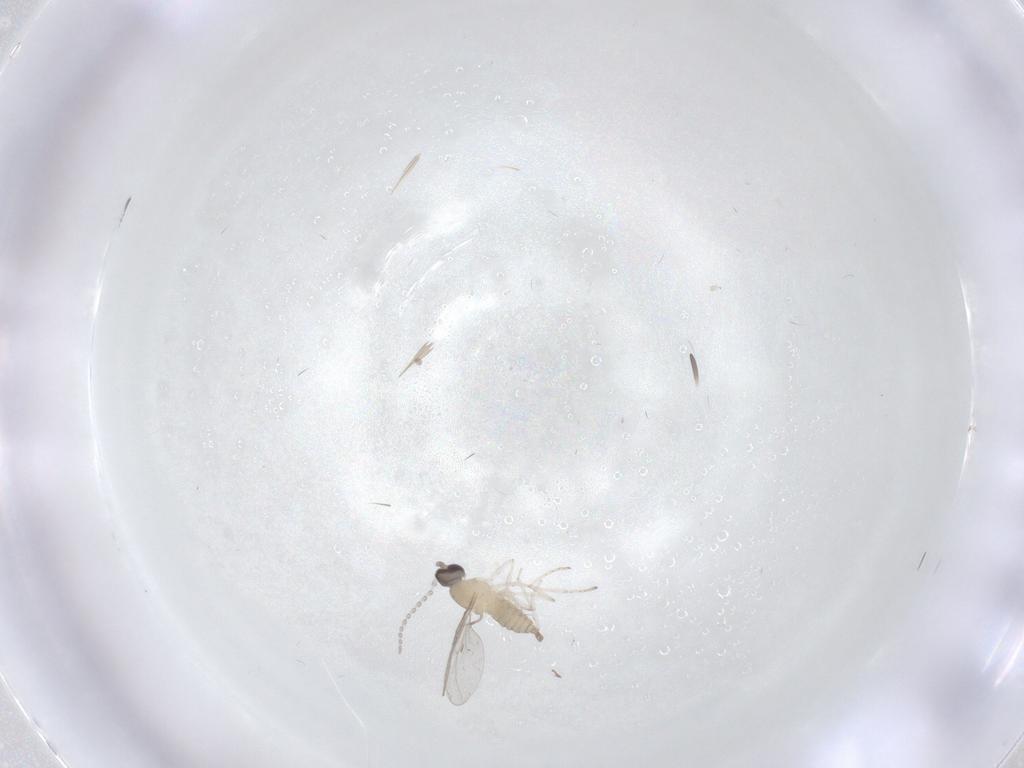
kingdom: Animalia
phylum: Arthropoda
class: Insecta
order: Diptera
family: Cecidomyiidae
